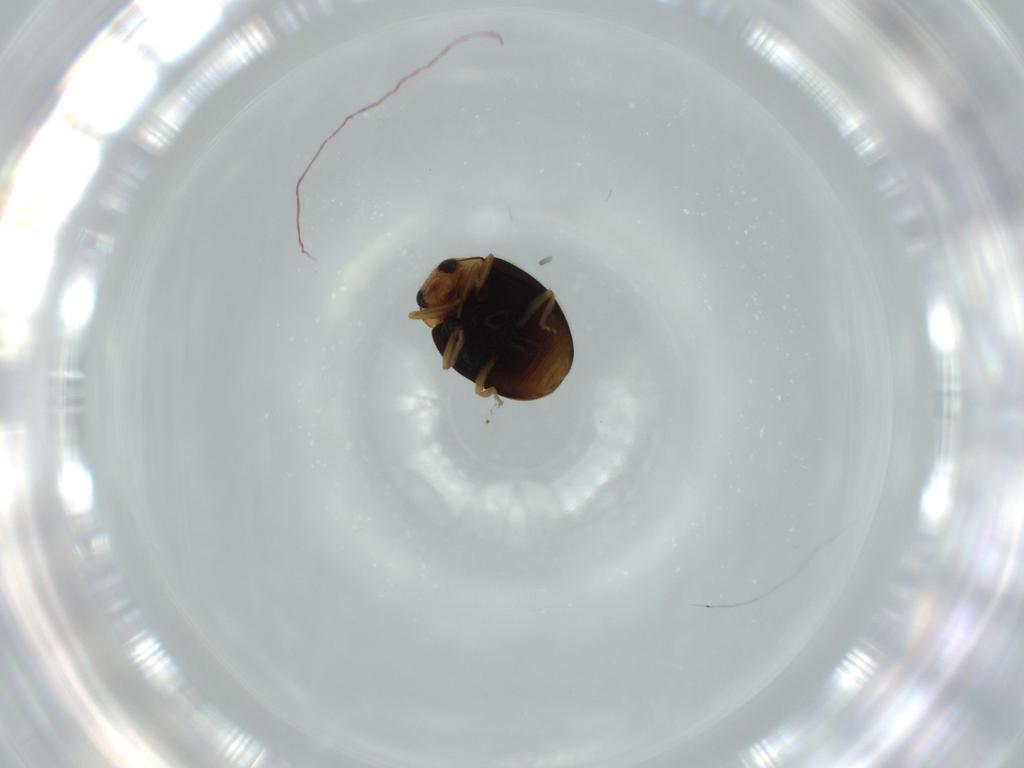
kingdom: Animalia
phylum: Arthropoda
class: Insecta
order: Coleoptera
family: Coccinellidae
